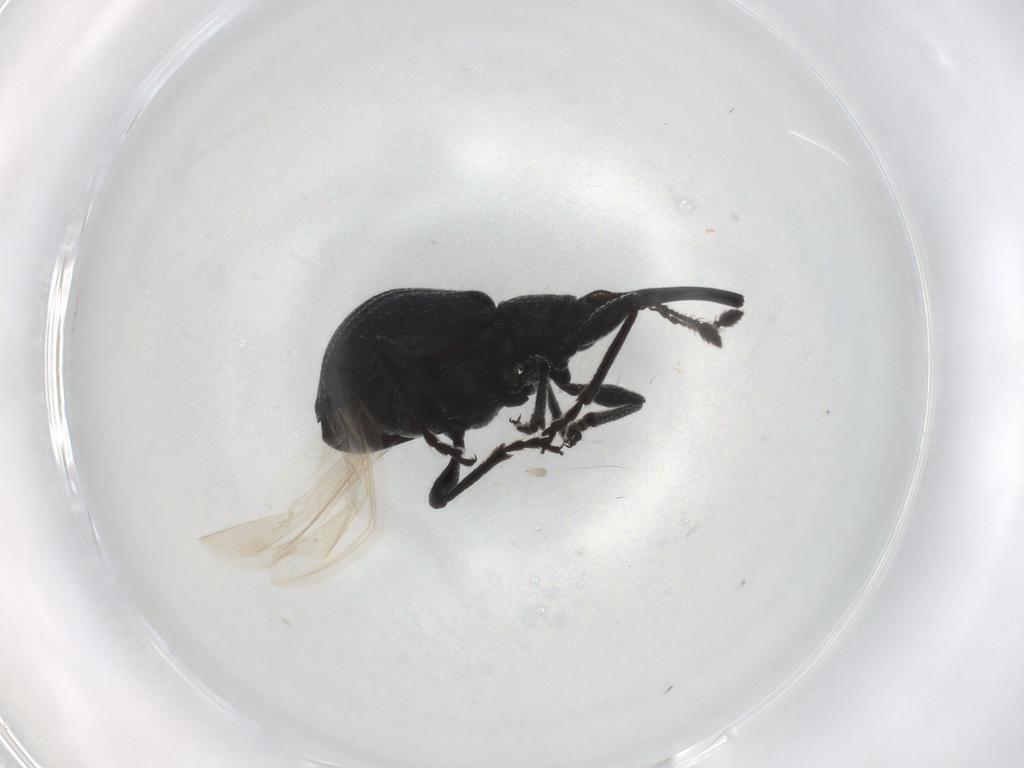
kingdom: Animalia
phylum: Arthropoda
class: Insecta
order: Coleoptera
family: Brentidae
